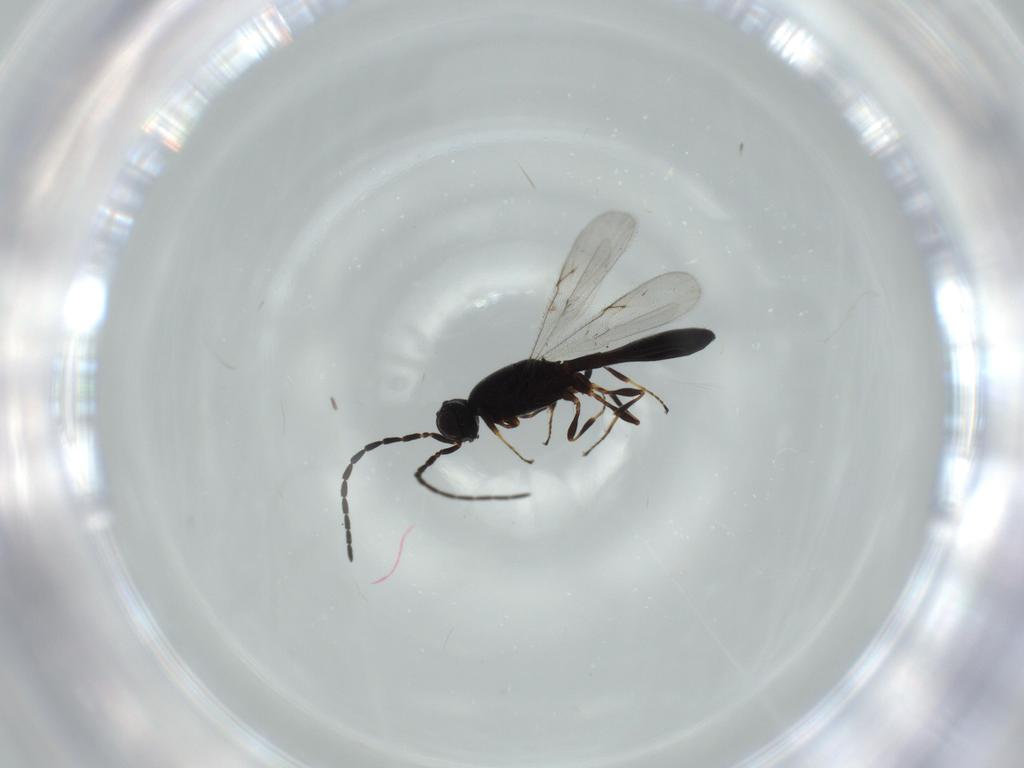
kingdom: Animalia
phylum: Arthropoda
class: Insecta
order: Hymenoptera
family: Scelionidae
